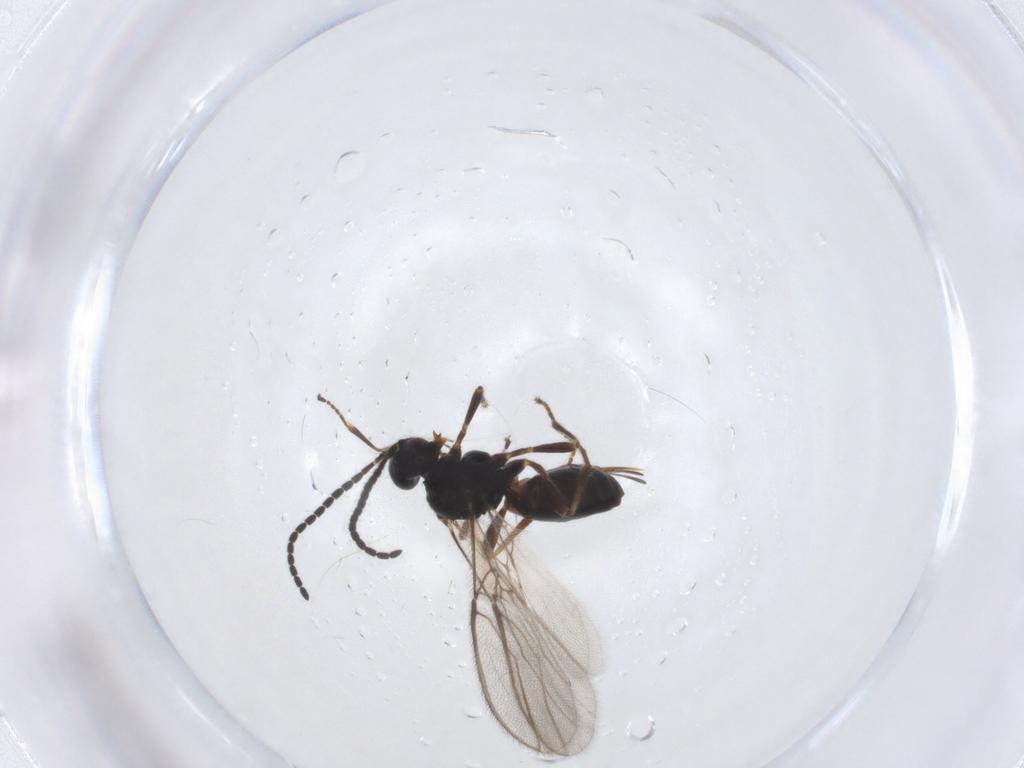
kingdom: Animalia
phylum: Arthropoda
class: Insecta
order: Hymenoptera
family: Braconidae
